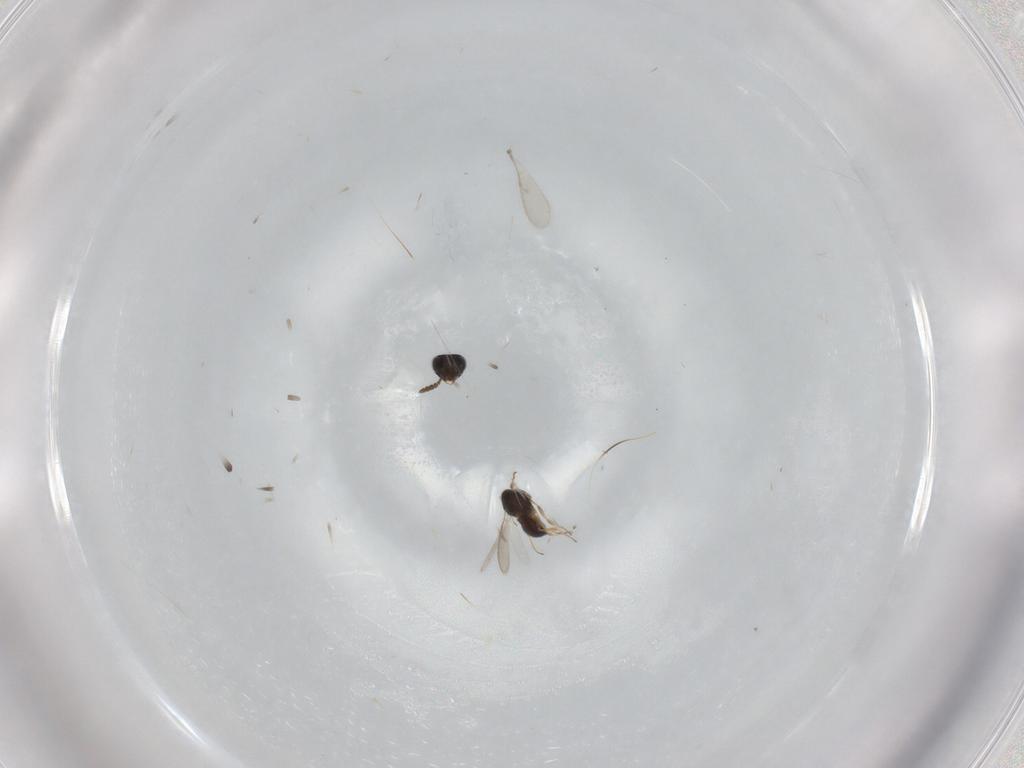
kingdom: Animalia
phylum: Arthropoda
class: Insecta
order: Hymenoptera
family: Scelionidae
